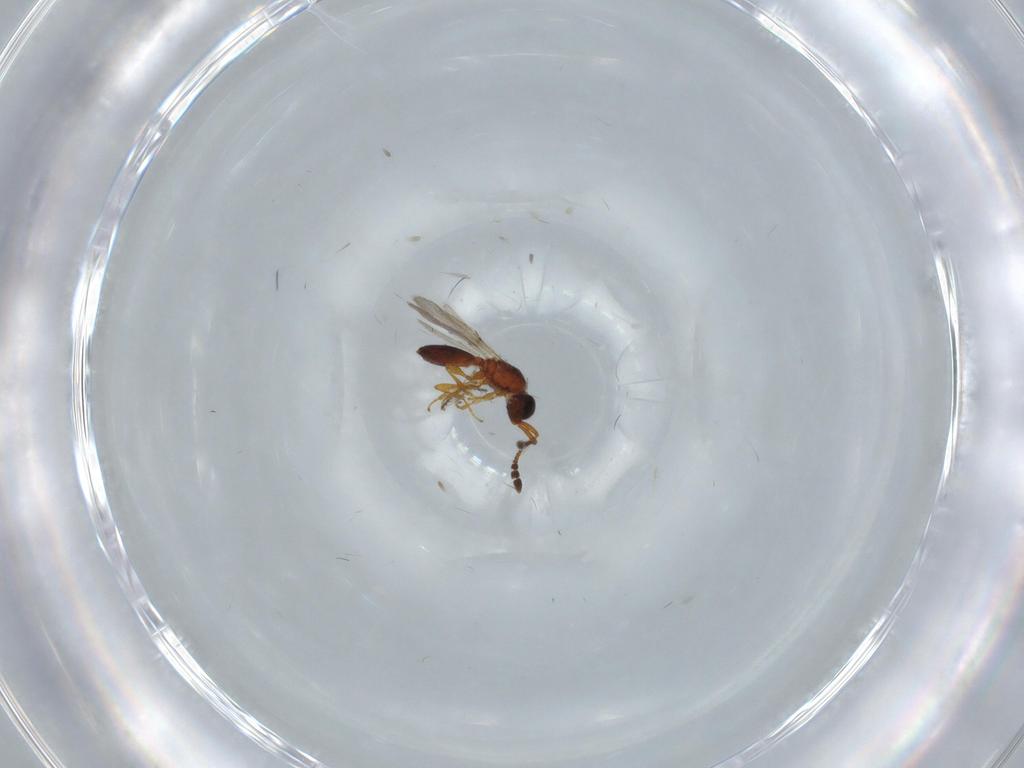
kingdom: Animalia
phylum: Arthropoda
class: Insecta
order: Hymenoptera
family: Diapriidae
